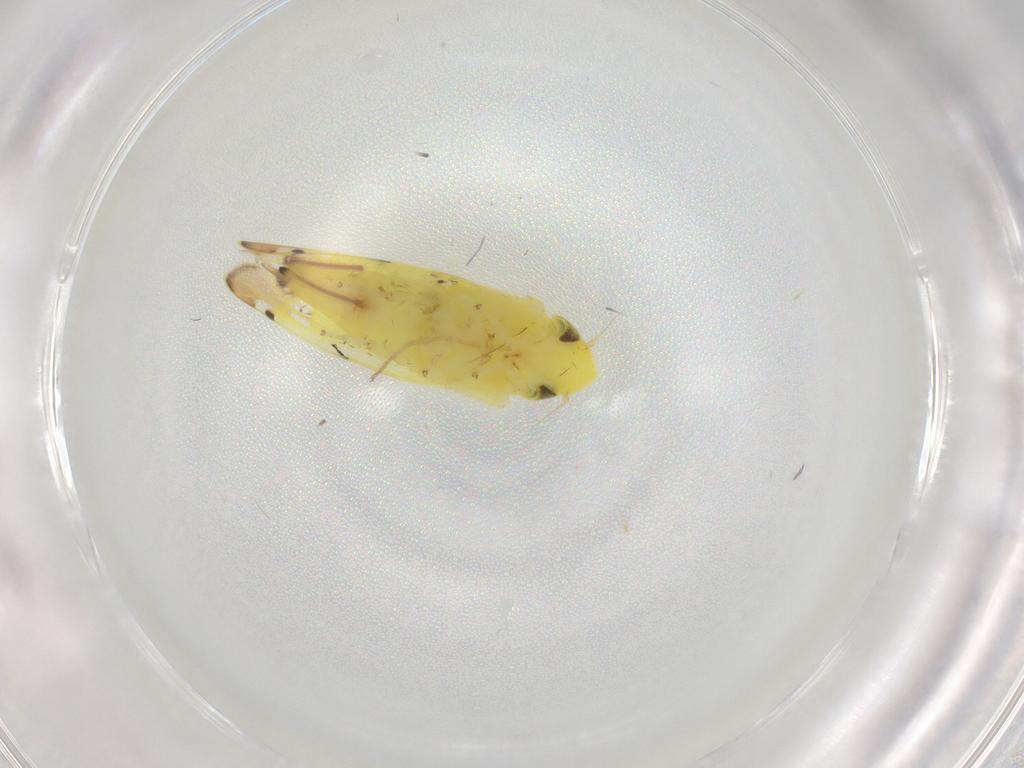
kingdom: Animalia
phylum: Arthropoda
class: Insecta
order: Hemiptera
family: Cicadellidae
